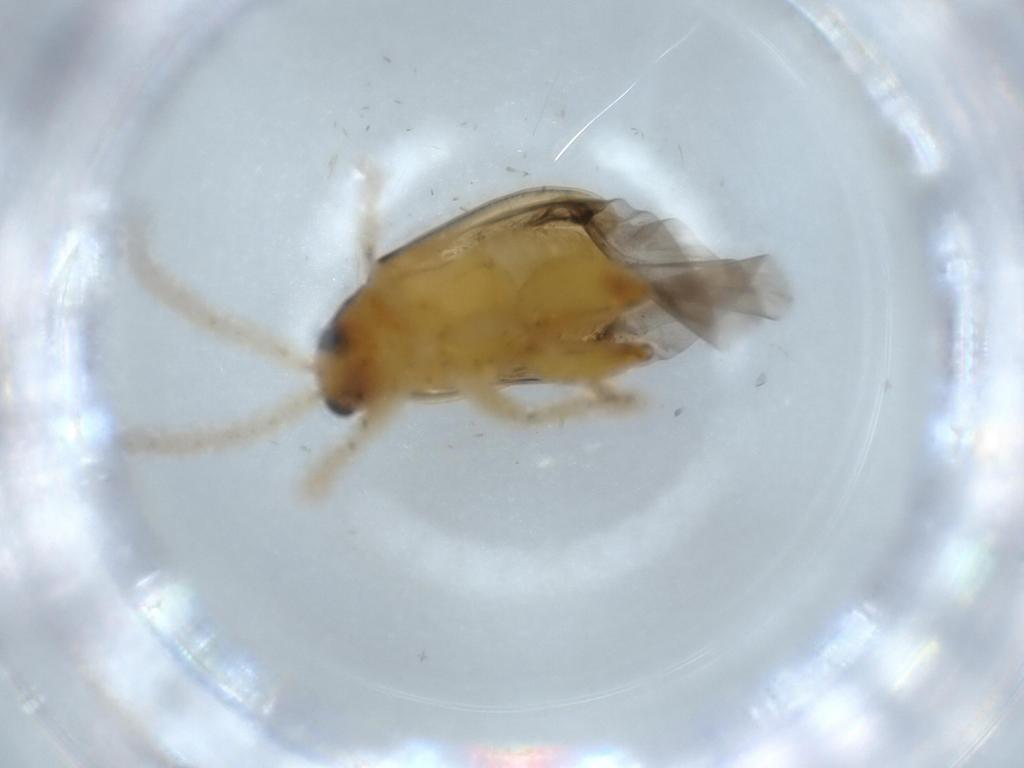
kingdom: Animalia
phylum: Arthropoda
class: Insecta
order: Coleoptera
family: Chrysomelidae
